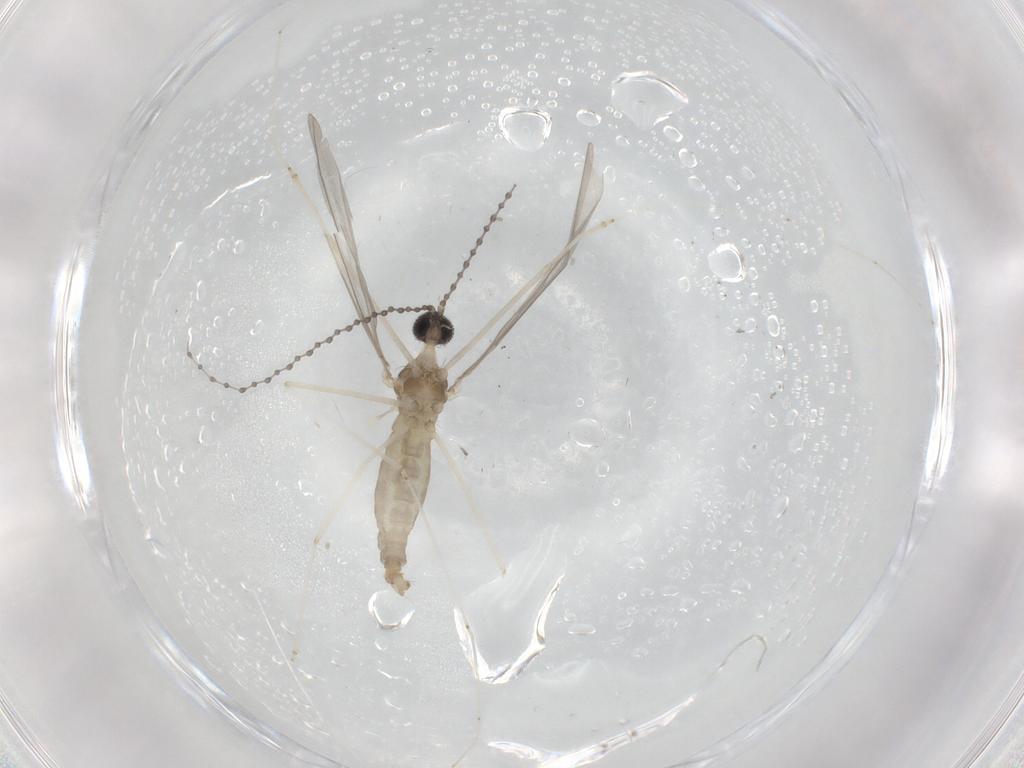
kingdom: Animalia
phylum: Arthropoda
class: Insecta
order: Diptera
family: Cecidomyiidae
